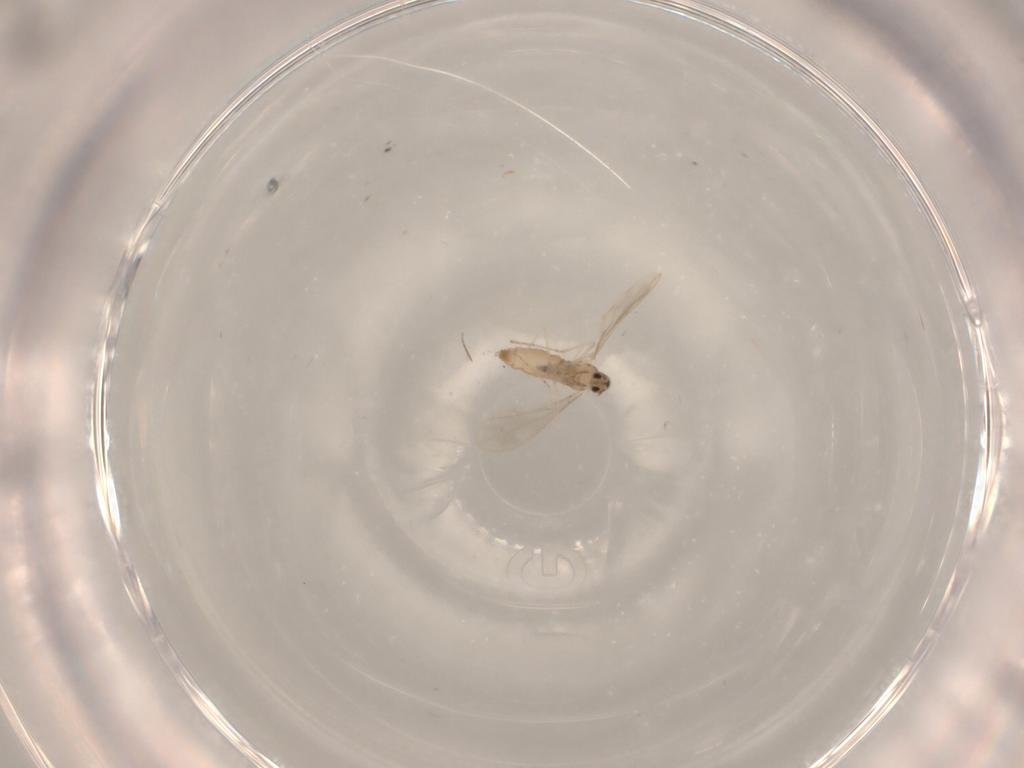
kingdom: Animalia
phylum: Arthropoda
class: Insecta
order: Diptera
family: Cecidomyiidae
